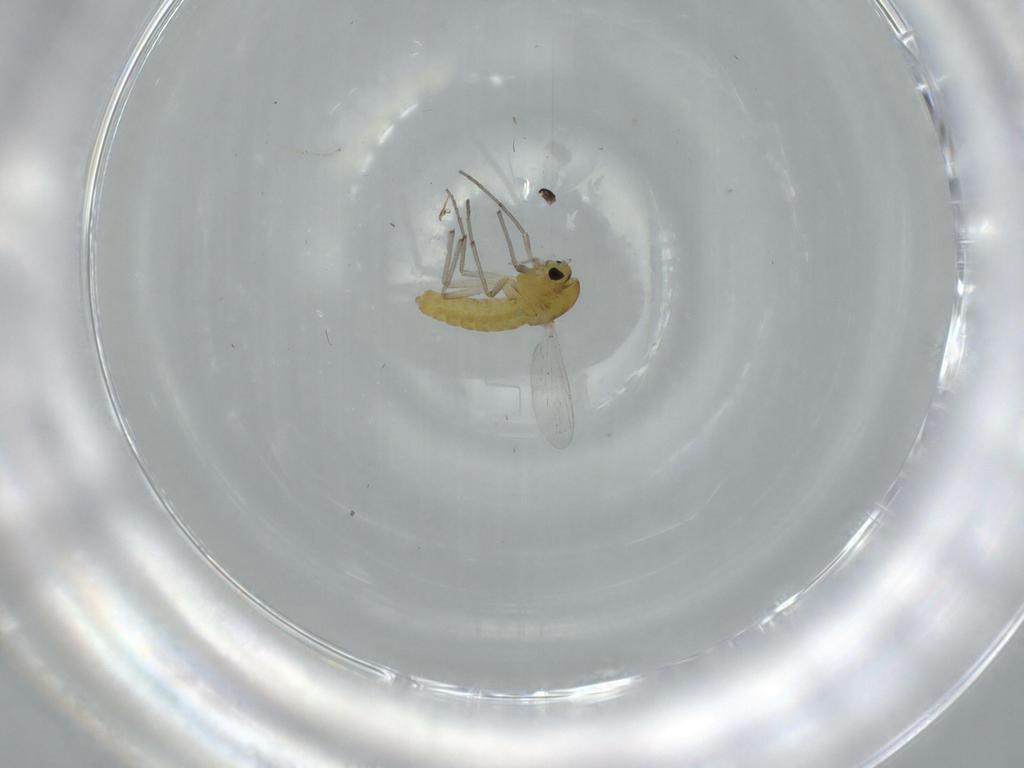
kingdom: Animalia
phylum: Arthropoda
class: Insecta
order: Diptera
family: Chironomidae
